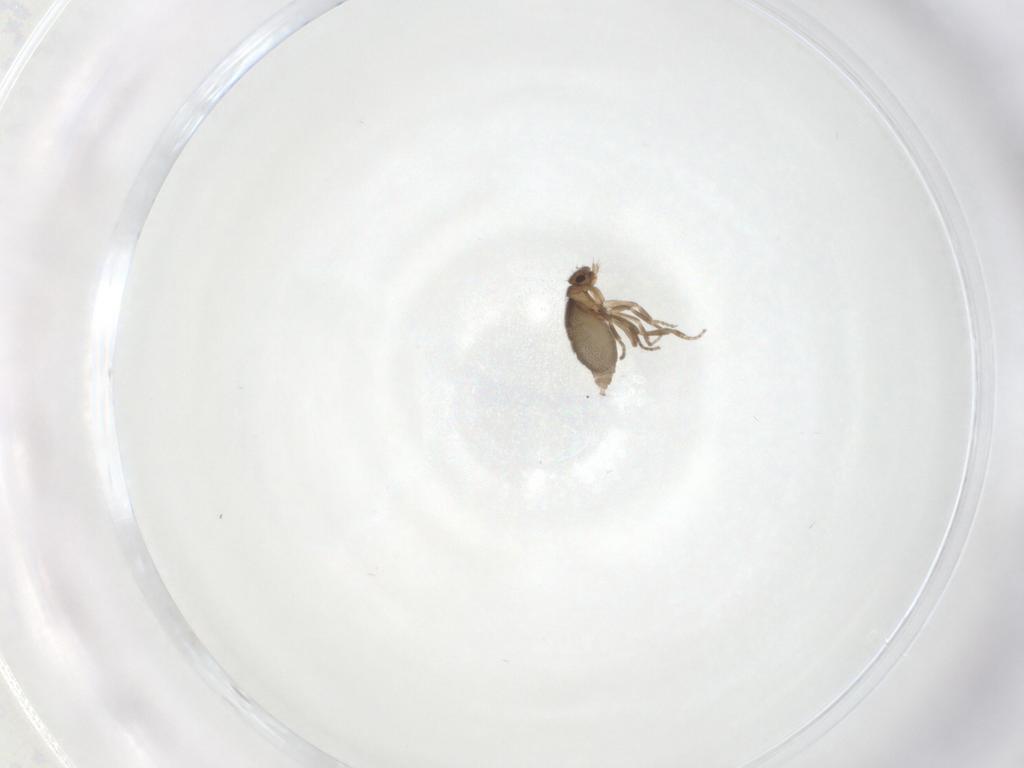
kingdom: Animalia
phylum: Arthropoda
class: Insecta
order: Diptera
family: Phoridae
